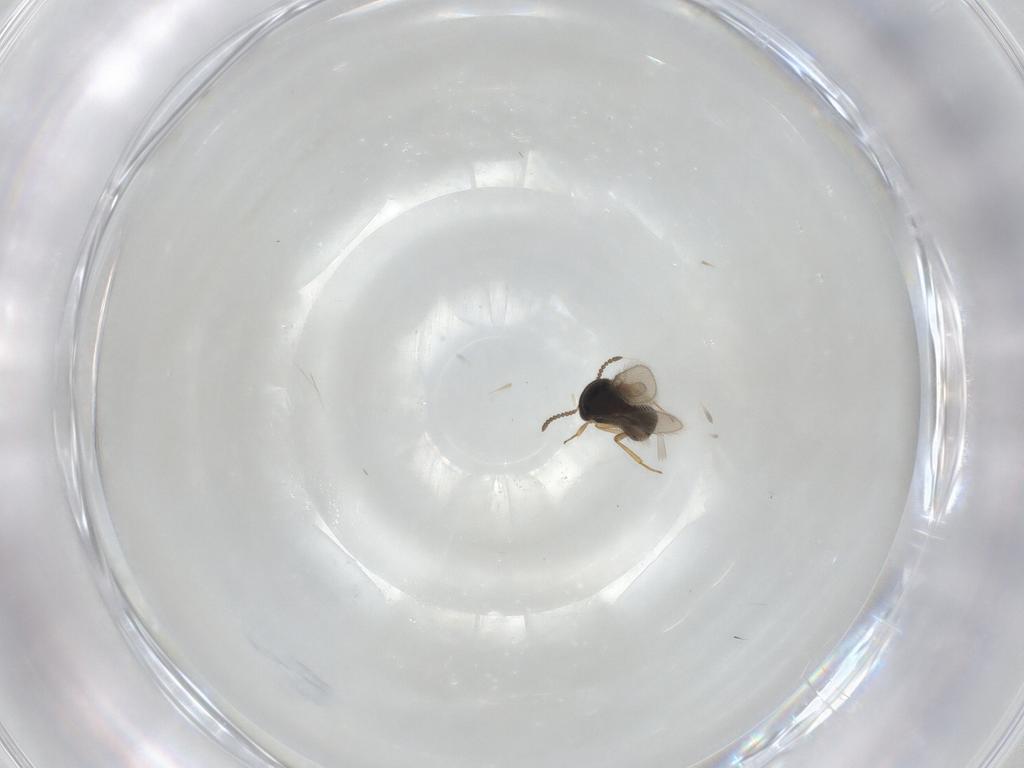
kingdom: Animalia
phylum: Arthropoda
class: Insecta
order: Hymenoptera
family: Scelionidae
